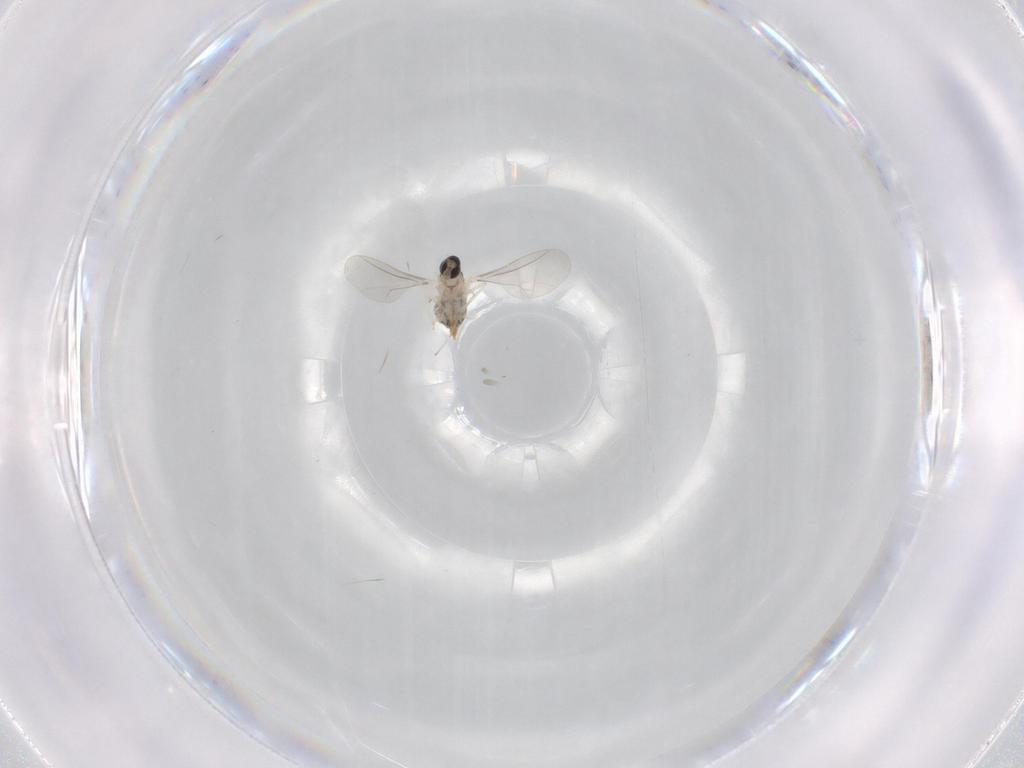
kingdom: Animalia
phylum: Arthropoda
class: Insecta
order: Diptera
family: Cecidomyiidae
